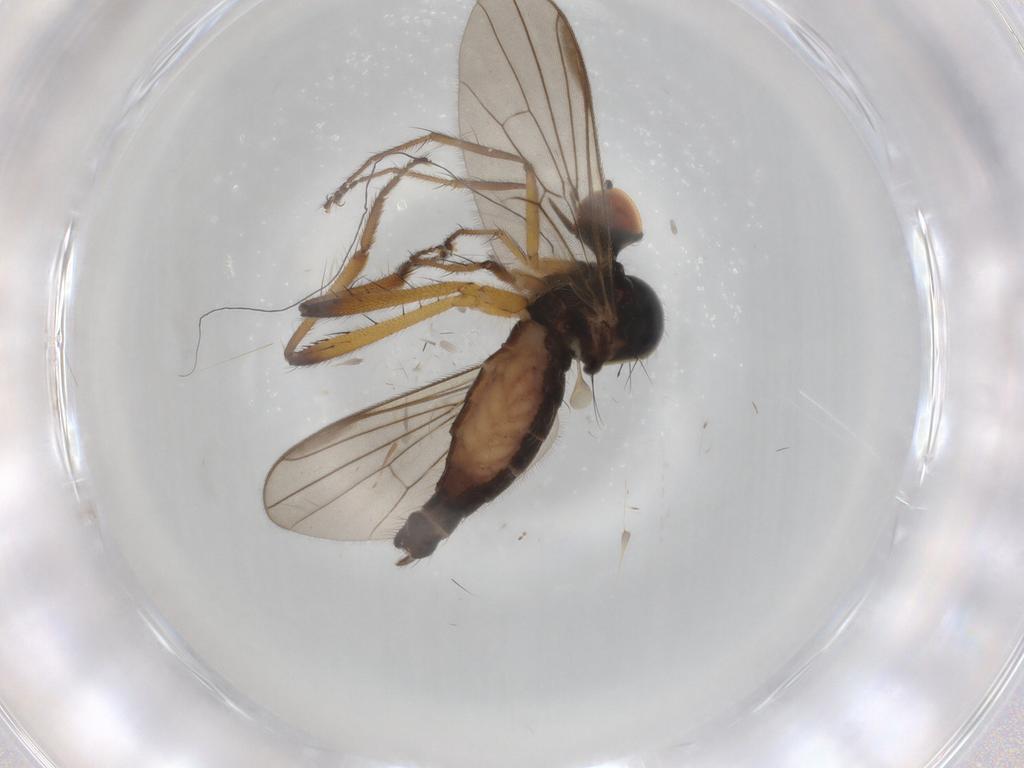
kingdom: Animalia
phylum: Arthropoda
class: Insecta
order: Diptera
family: Hybotidae
